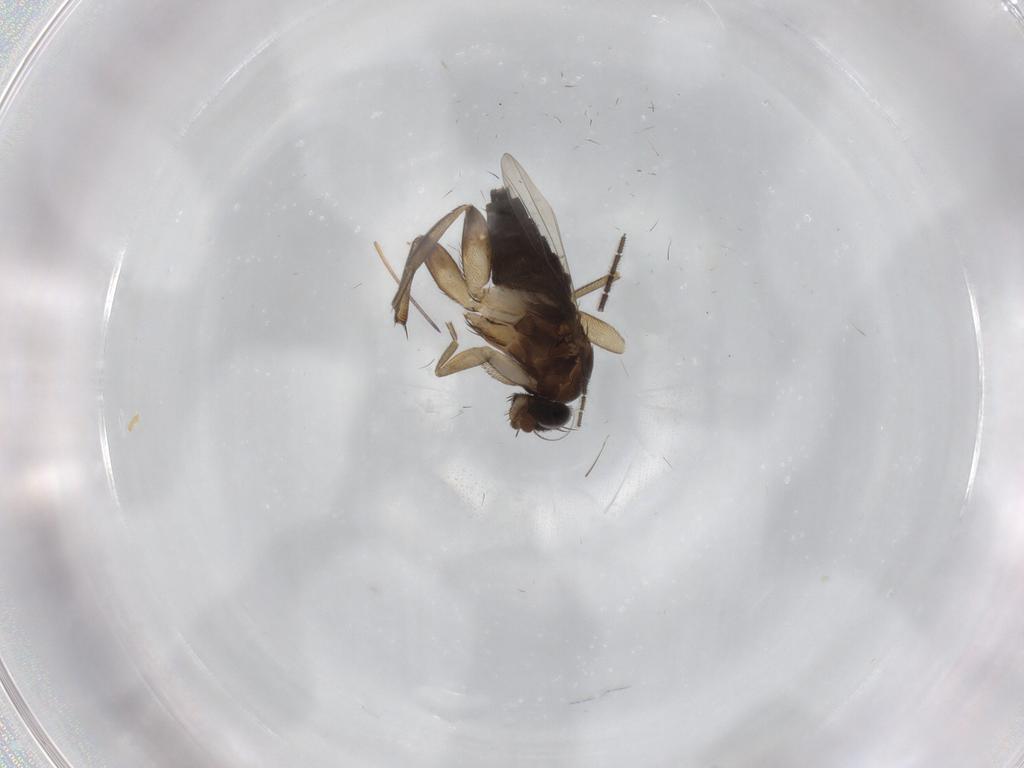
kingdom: Animalia
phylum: Arthropoda
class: Insecta
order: Diptera
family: Phoridae
